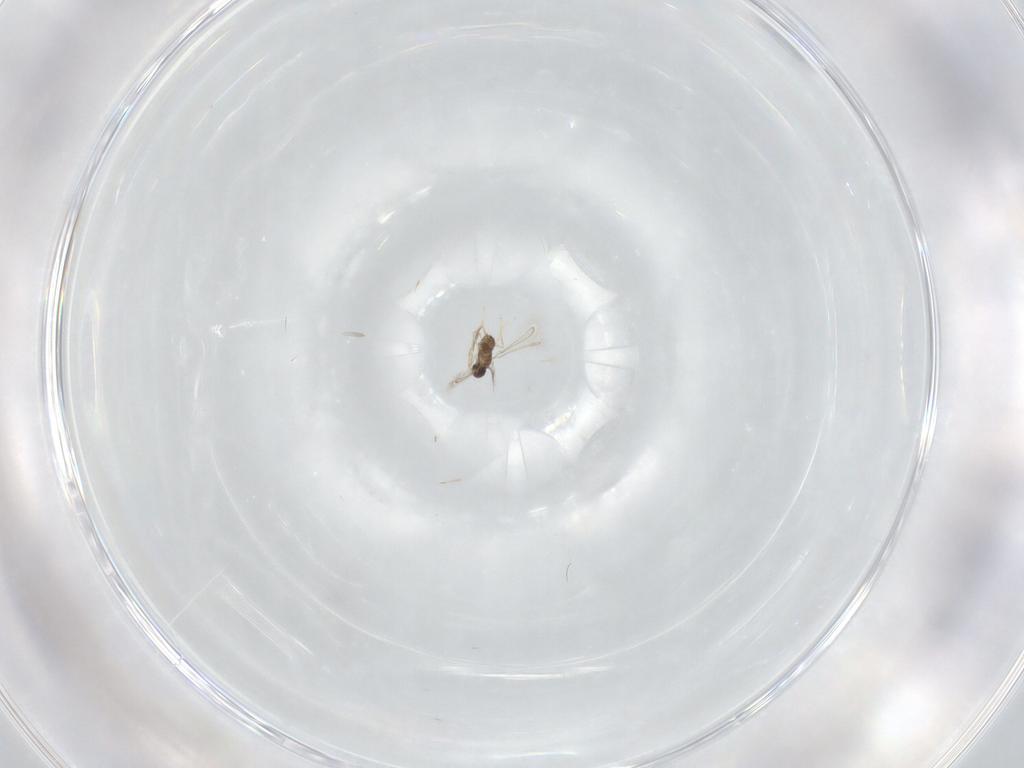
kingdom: Animalia
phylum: Arthropoda
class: Insecta
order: Hymenoptera
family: Mymaridae
